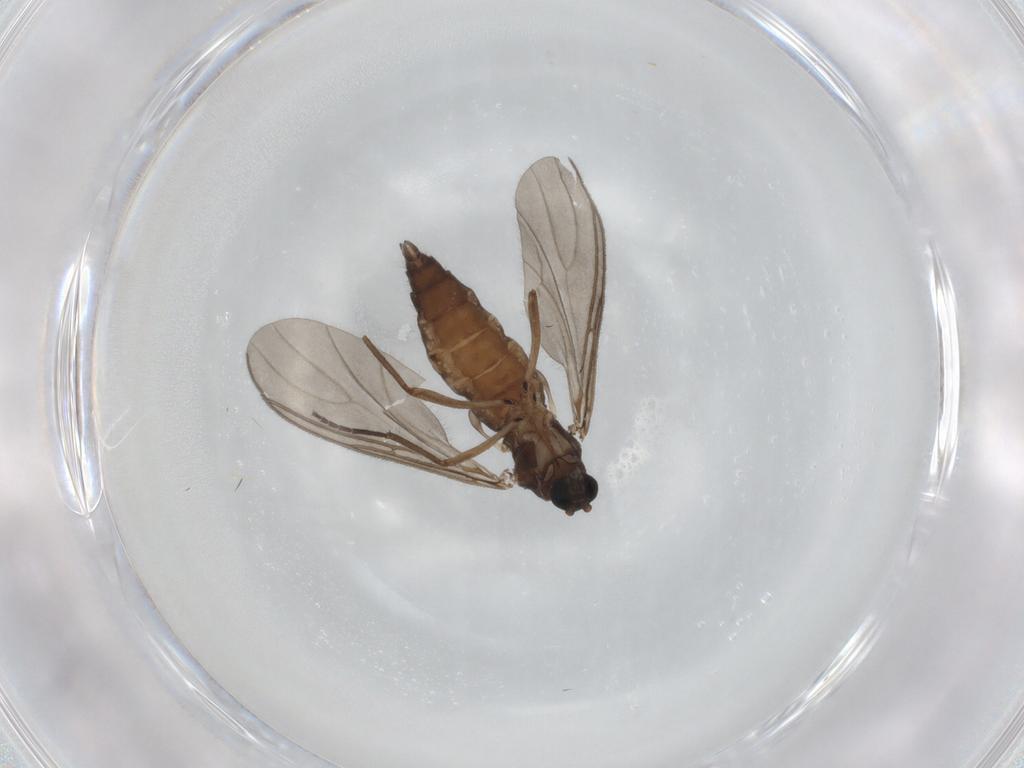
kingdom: Animalia
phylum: Arthropoda
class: Insecta
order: Diptera
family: Sciaridae
